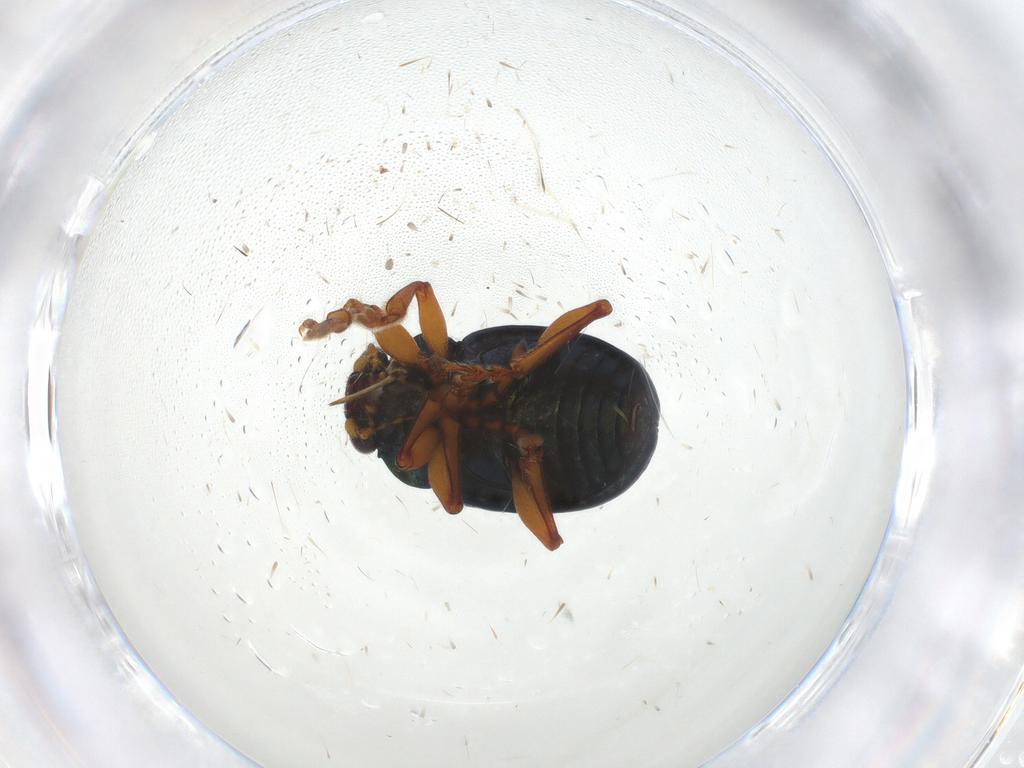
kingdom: Animalia
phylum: Arthropoda
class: Insecta
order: Coleoptera
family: Chrysomelidae
